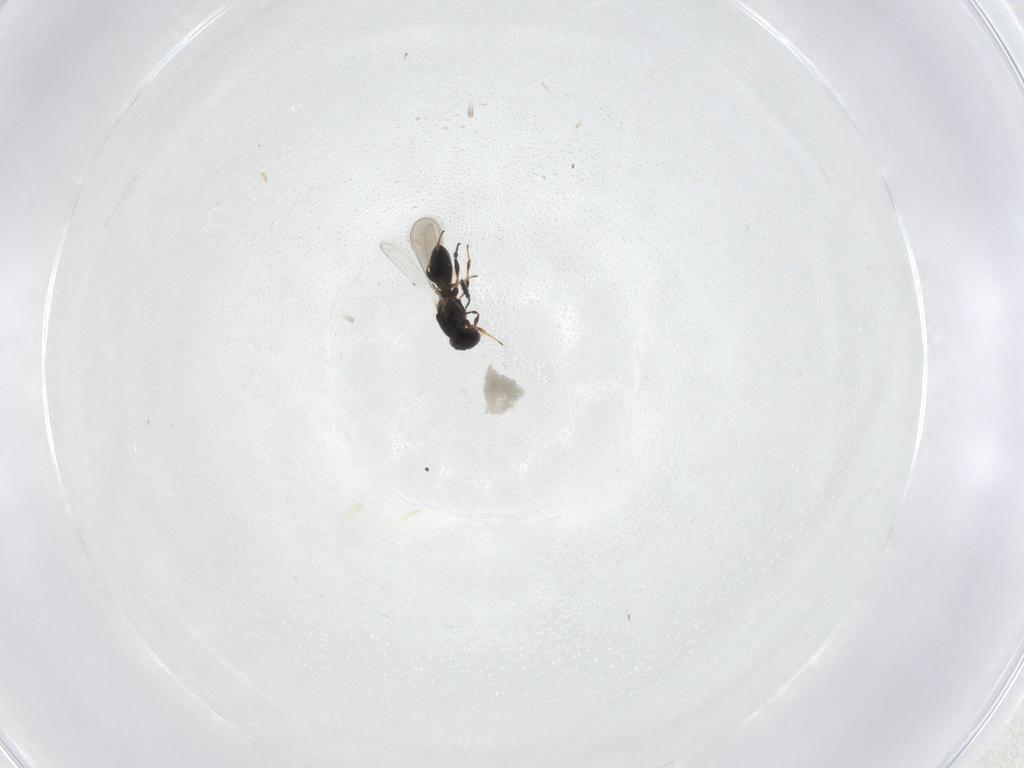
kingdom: Animalia
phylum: Arthropoda
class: Insecta
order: Hymenoptera
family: Platygastridae
